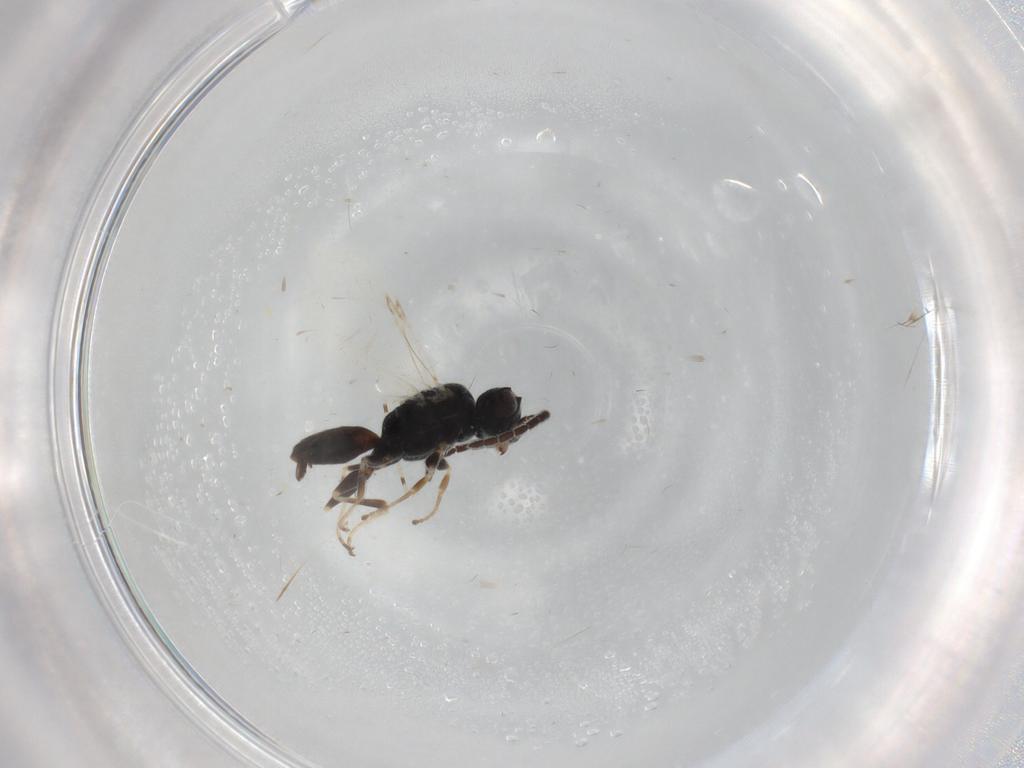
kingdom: Animalia
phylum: Arthropoda
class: Insecta
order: Hymenoptera
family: Dryinidae
